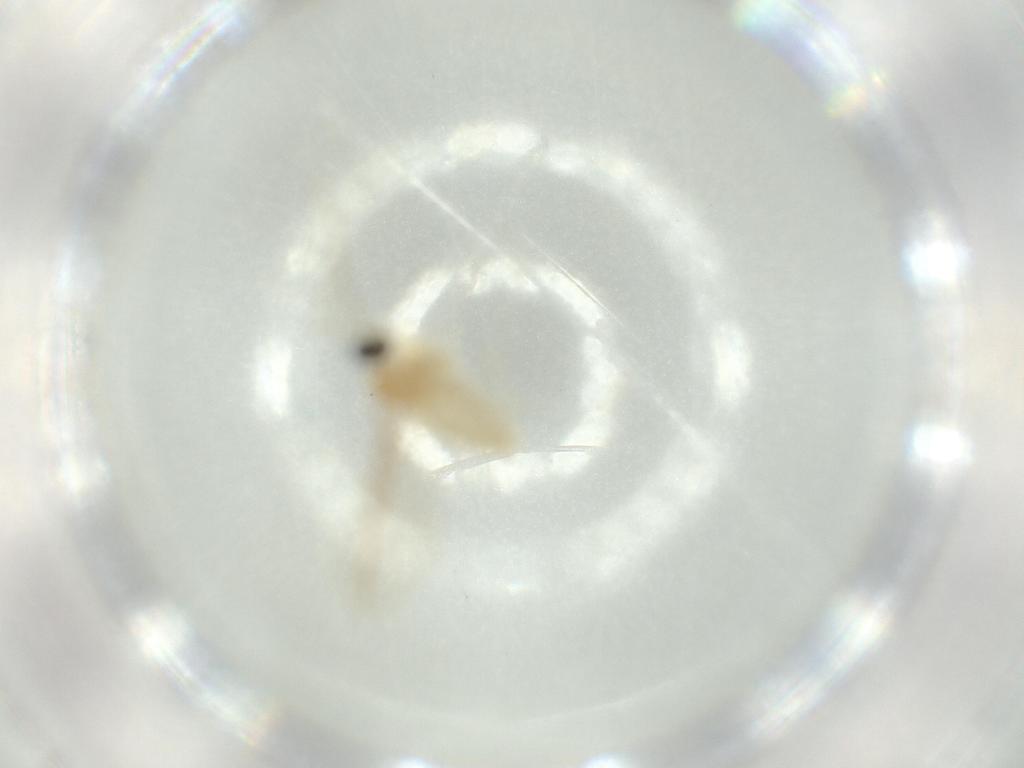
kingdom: Animalia
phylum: Arthropoda
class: Insecta
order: Diptera
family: Cecidomyiidae
